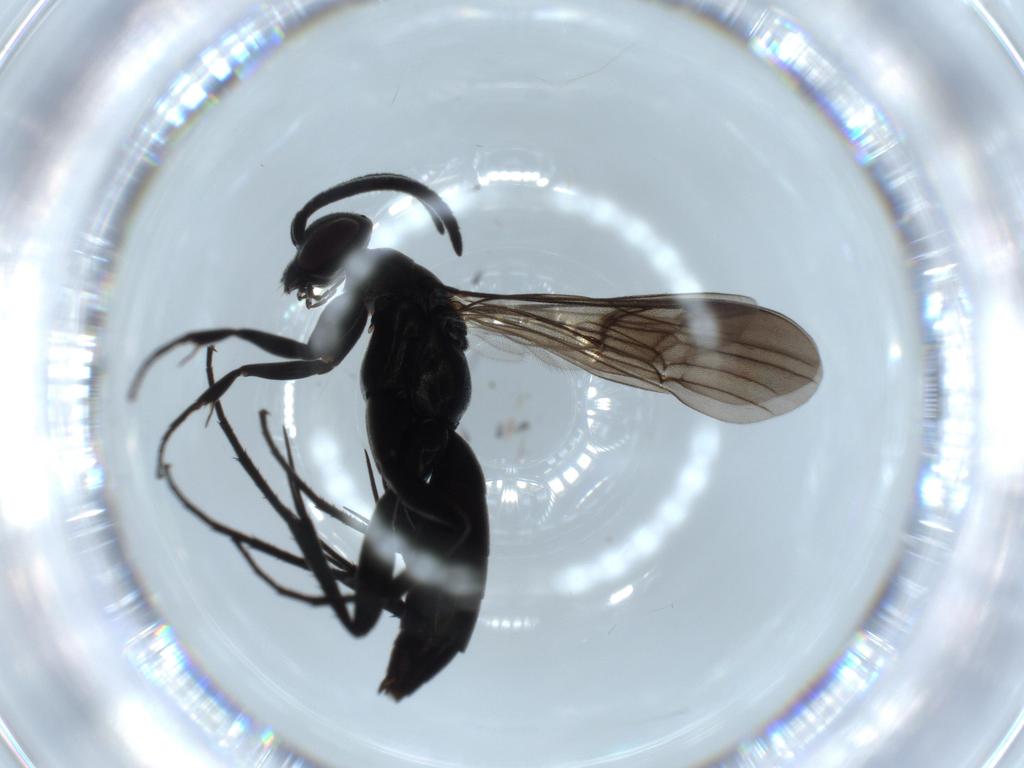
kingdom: Animalia
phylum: Arthropoda
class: Insecta
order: Hymenoptera
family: Pompilidae
